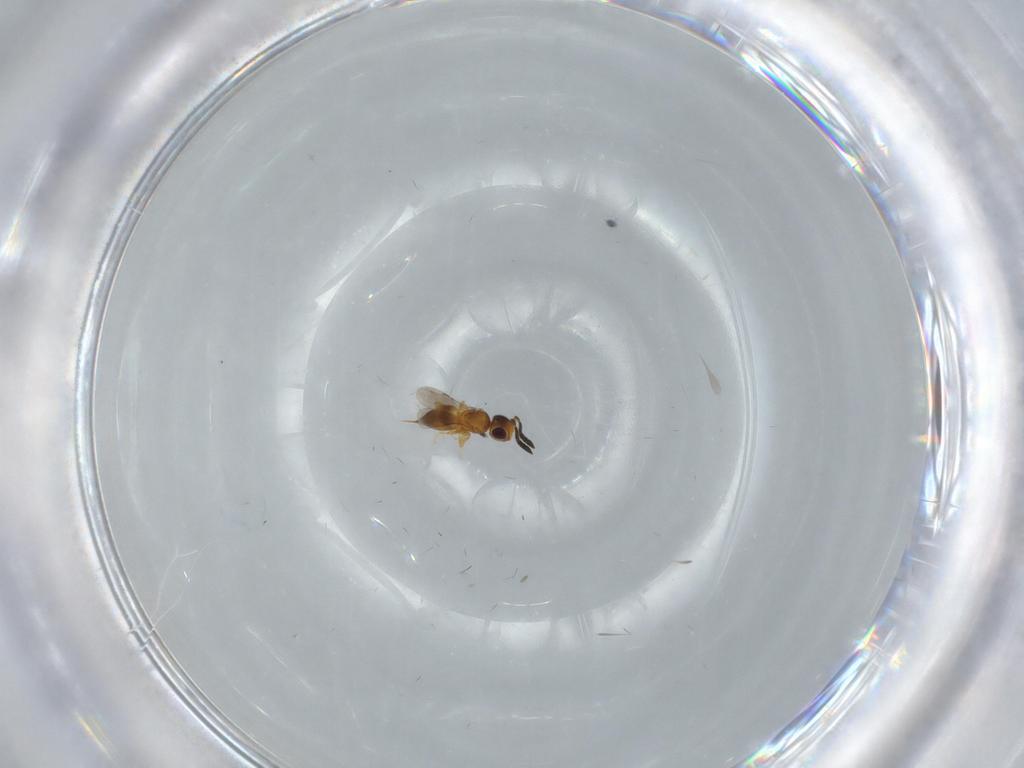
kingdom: Animalia
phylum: Arthropoda
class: Insecta
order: Hymenoptera
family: Ceraphronidae
